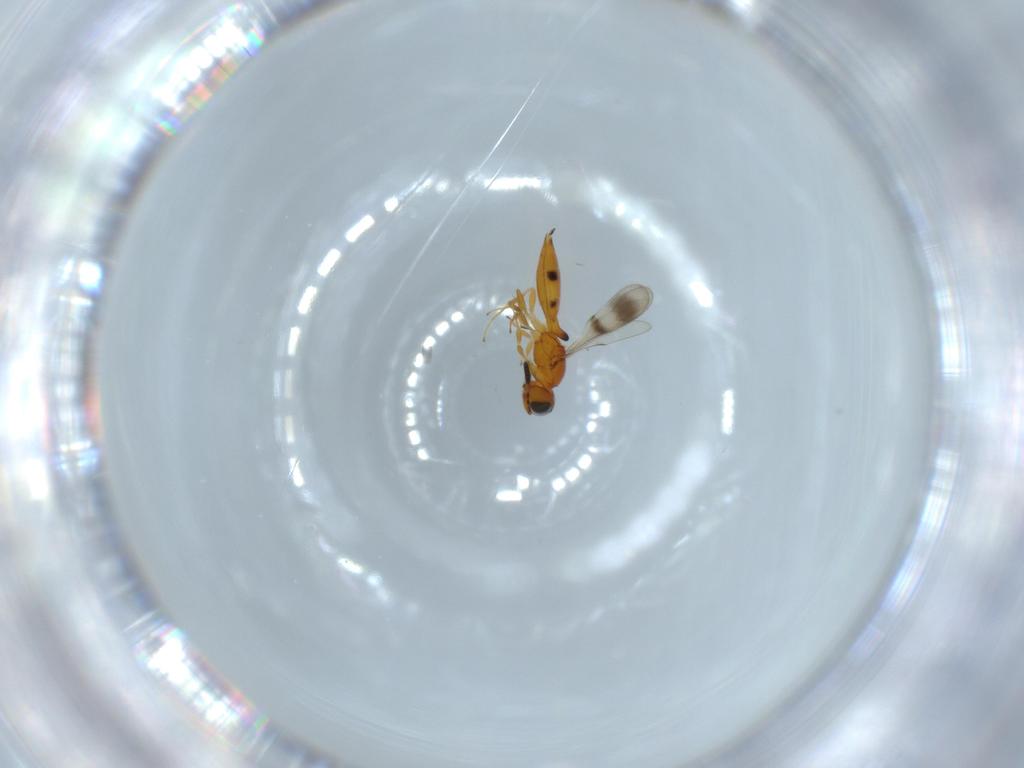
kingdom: Animalia
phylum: Arthropoda
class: Insecta
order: Hymenoptera
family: Scelionidae
